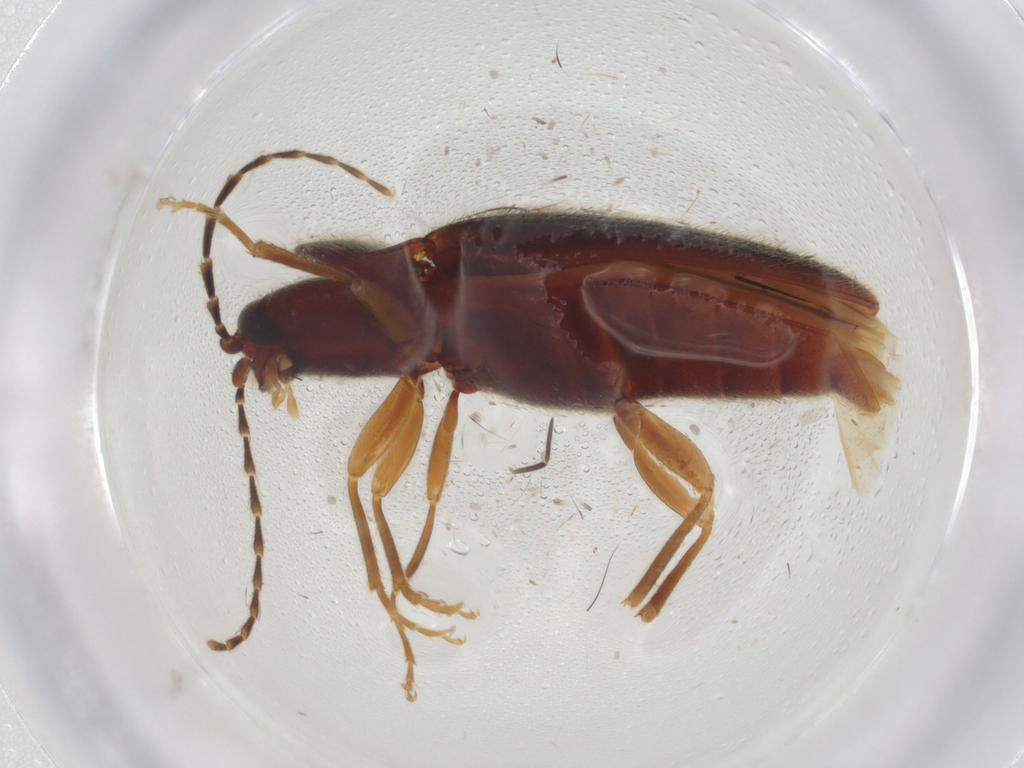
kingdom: Animalia
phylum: Arthropoda
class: Insecta
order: Coleoptera
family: Elateridae
